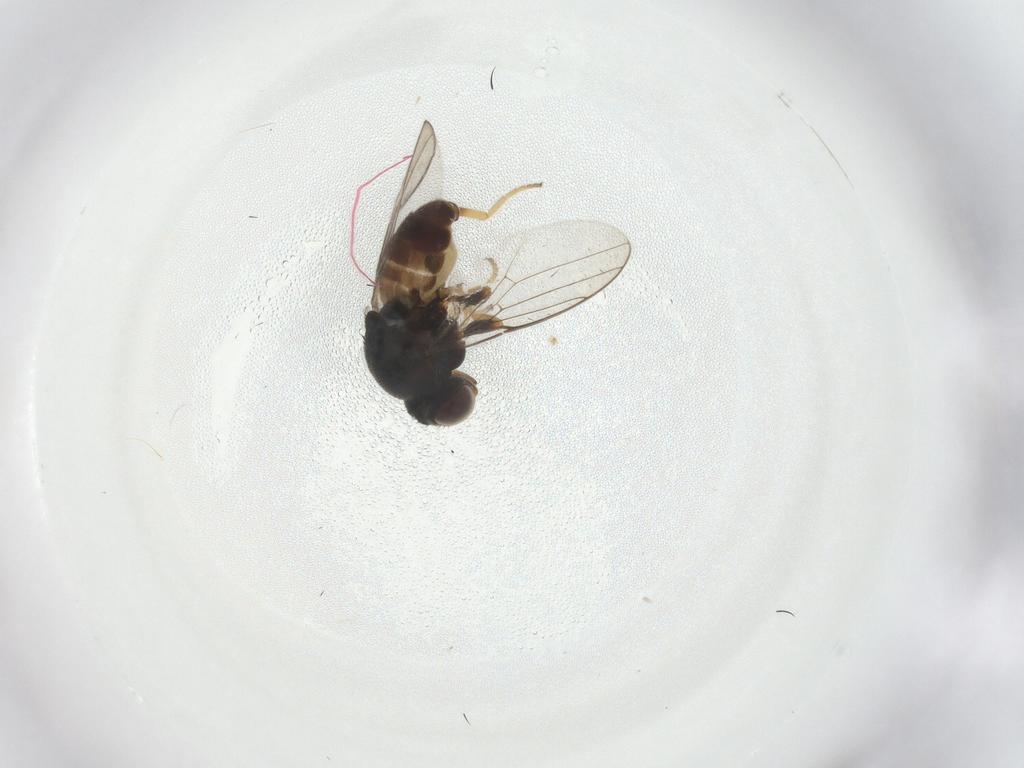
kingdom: Animalia
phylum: Arthropoda
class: Insecta
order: Diptera
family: Chloropidae
